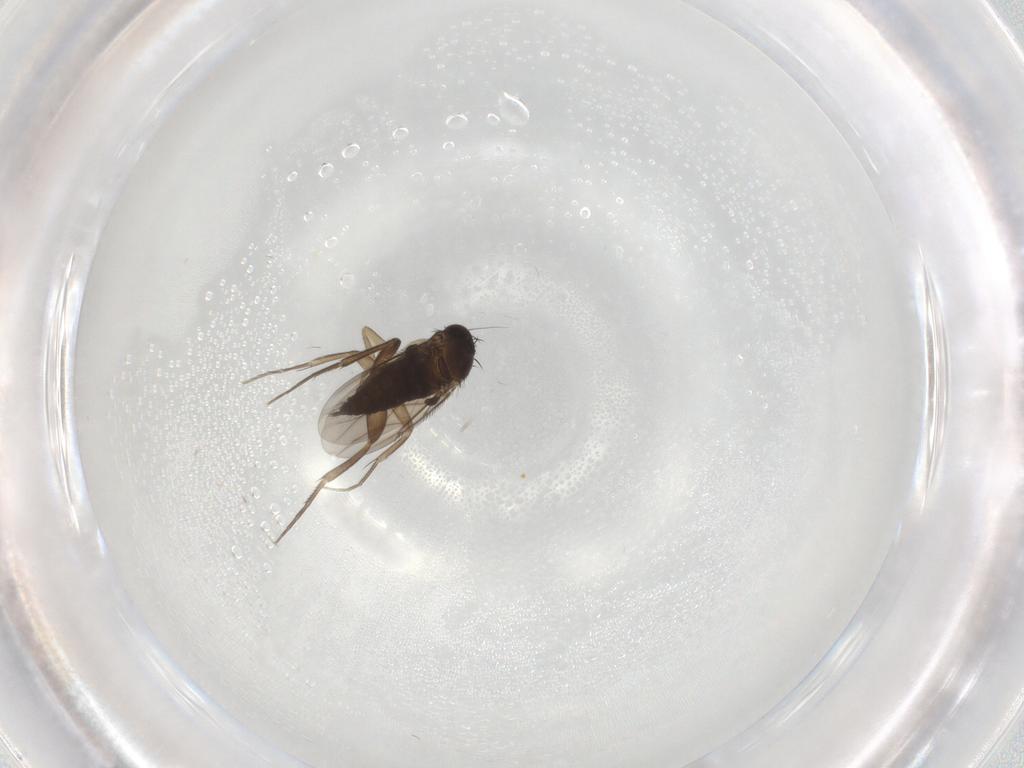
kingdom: Animalia
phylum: Arthropoda
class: Insecta
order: Diptera
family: Phoridae
